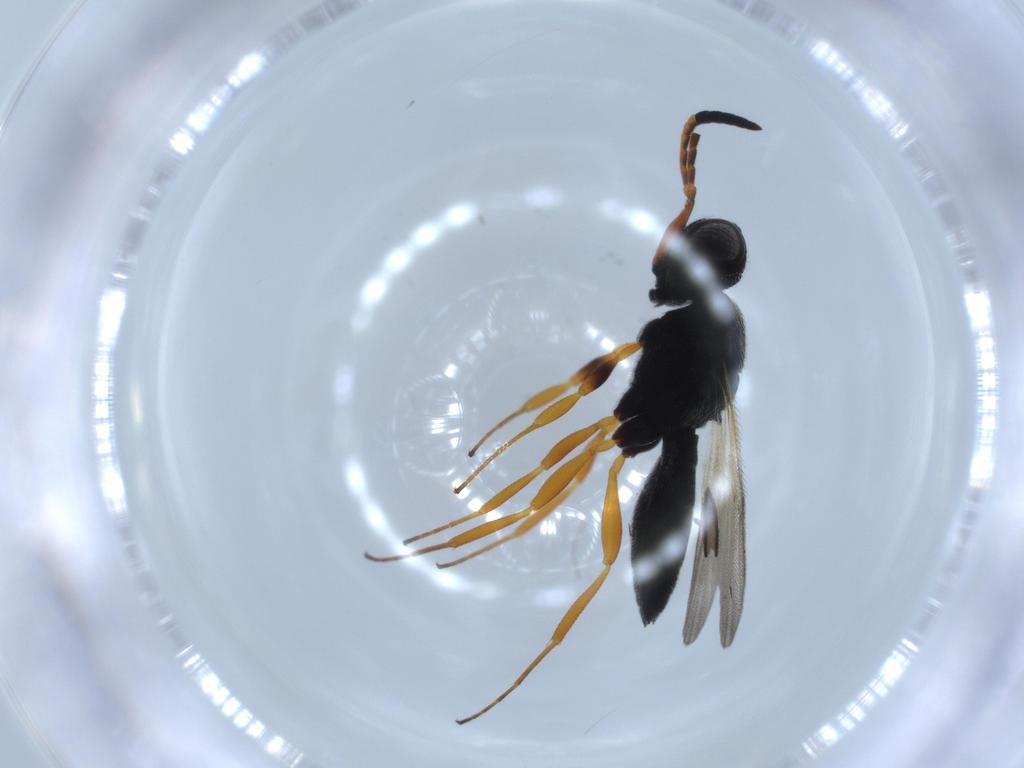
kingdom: Animalia
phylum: Arthropoda
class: Insecta
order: Hymenoptera
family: Scelionidae
